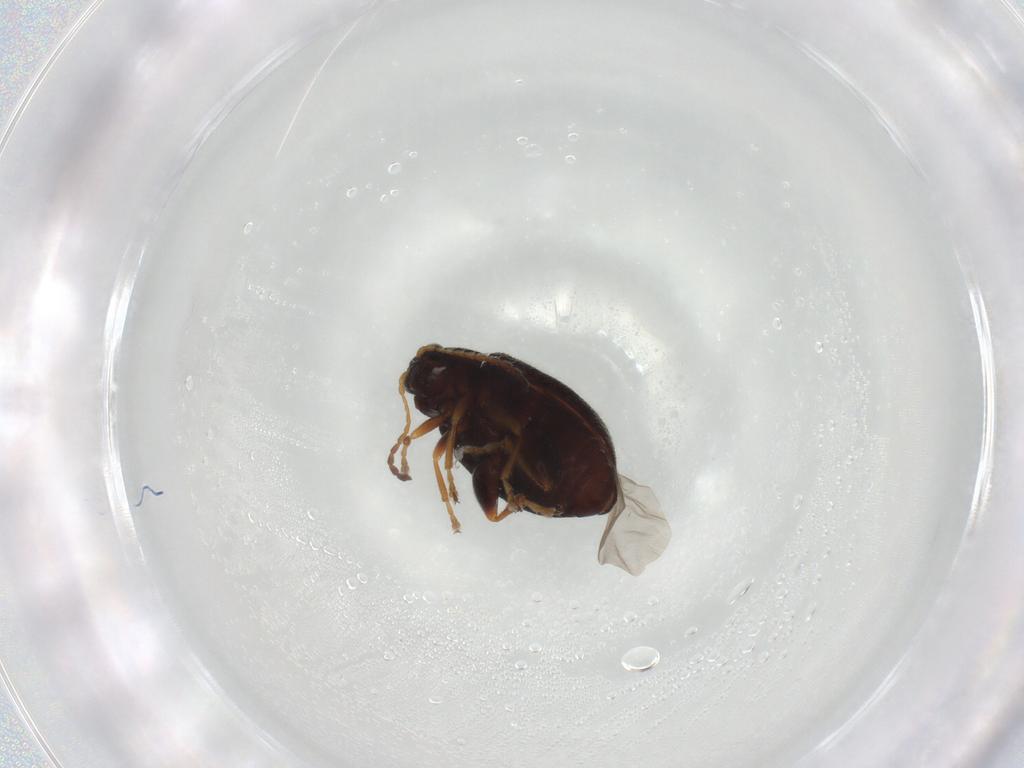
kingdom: Animalia
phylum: Arthropoda
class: Insecta
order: Coleoptera
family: Chrysomelidae
